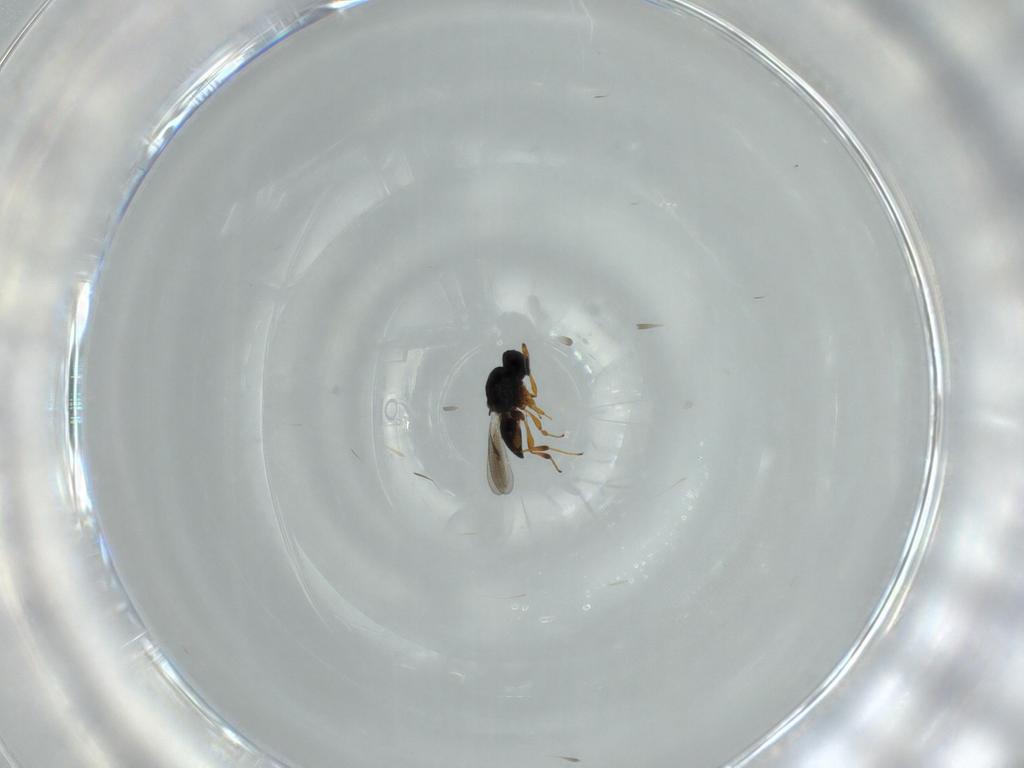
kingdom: Animalia
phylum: Arthropoda
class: Insecta
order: Hymenoptera
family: Platygastridae
